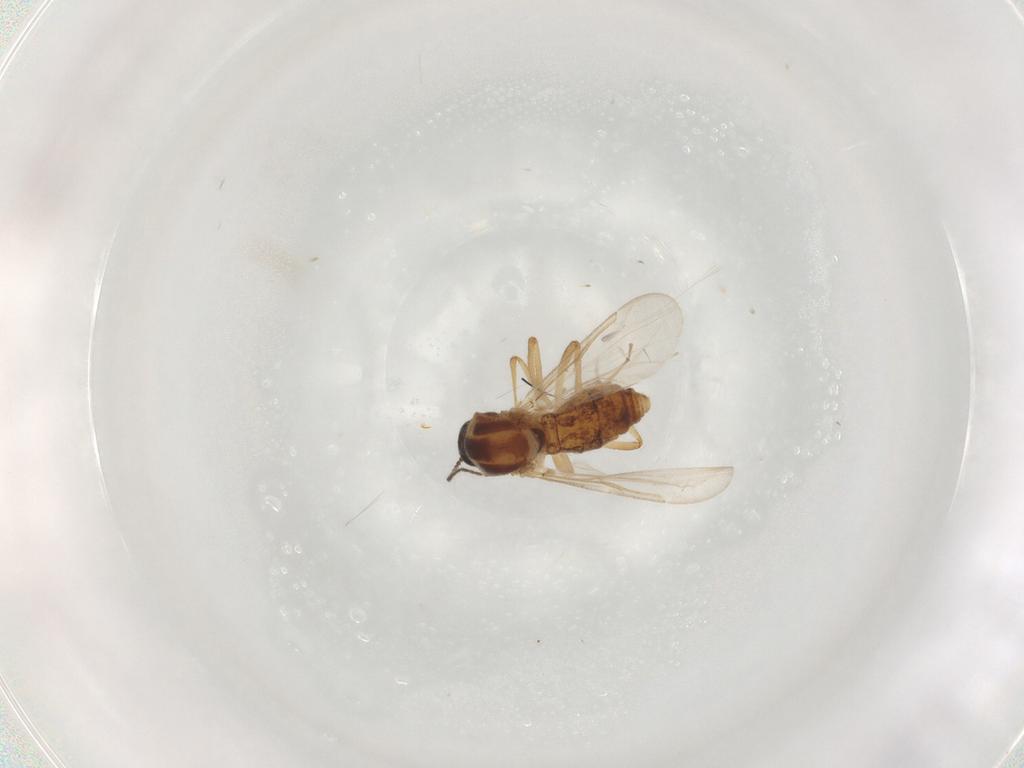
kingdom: Animalia
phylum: Arthropoda
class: Insecta
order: Diptera
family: Ceratopogonidae
